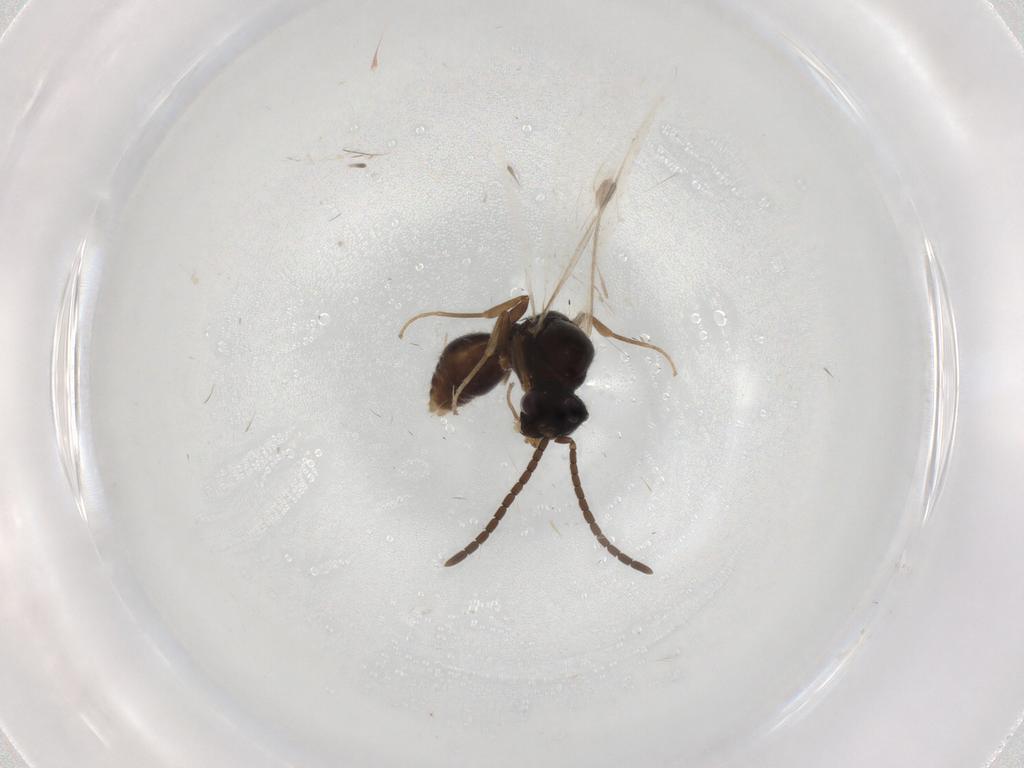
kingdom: Animalia
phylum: Arthropoda
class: Insecta
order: Hymenoptera
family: Formicidae
